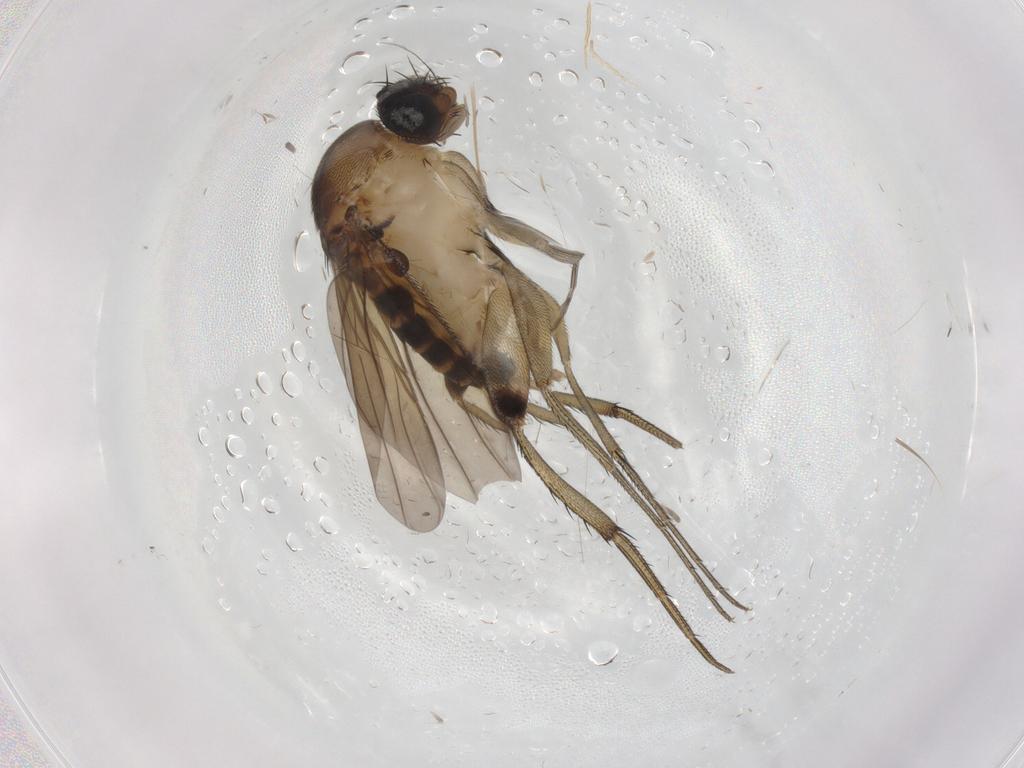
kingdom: Animalia
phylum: Arthropoda
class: Insecta
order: Diptera
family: Phoridae
